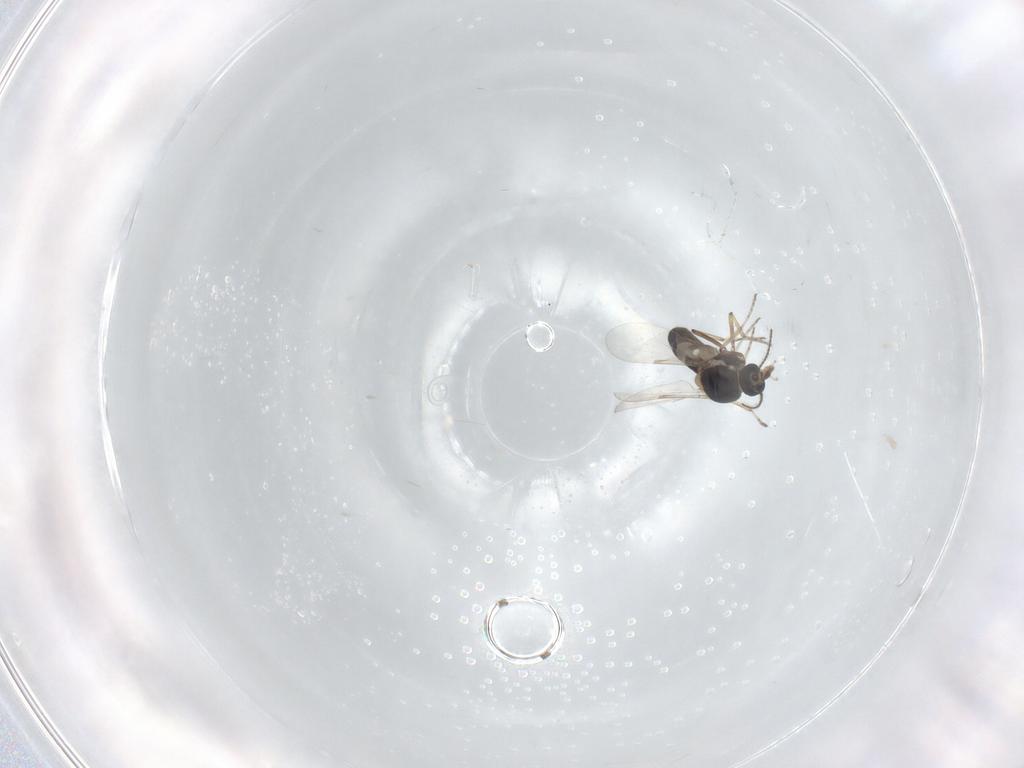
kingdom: Animalia
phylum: Arthropoda
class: Insecta
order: Diptera
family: Ceratopogonidae
